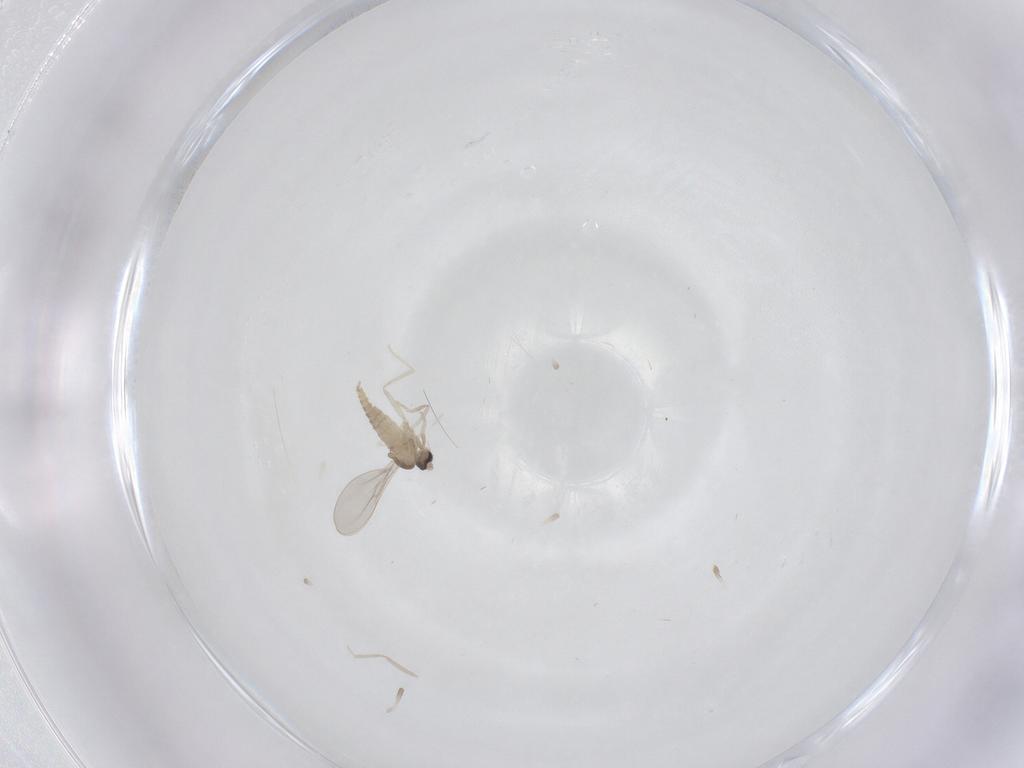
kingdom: Animalia
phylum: Arthropoda
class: Insecta
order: Diptera
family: Cecidomyiidae
